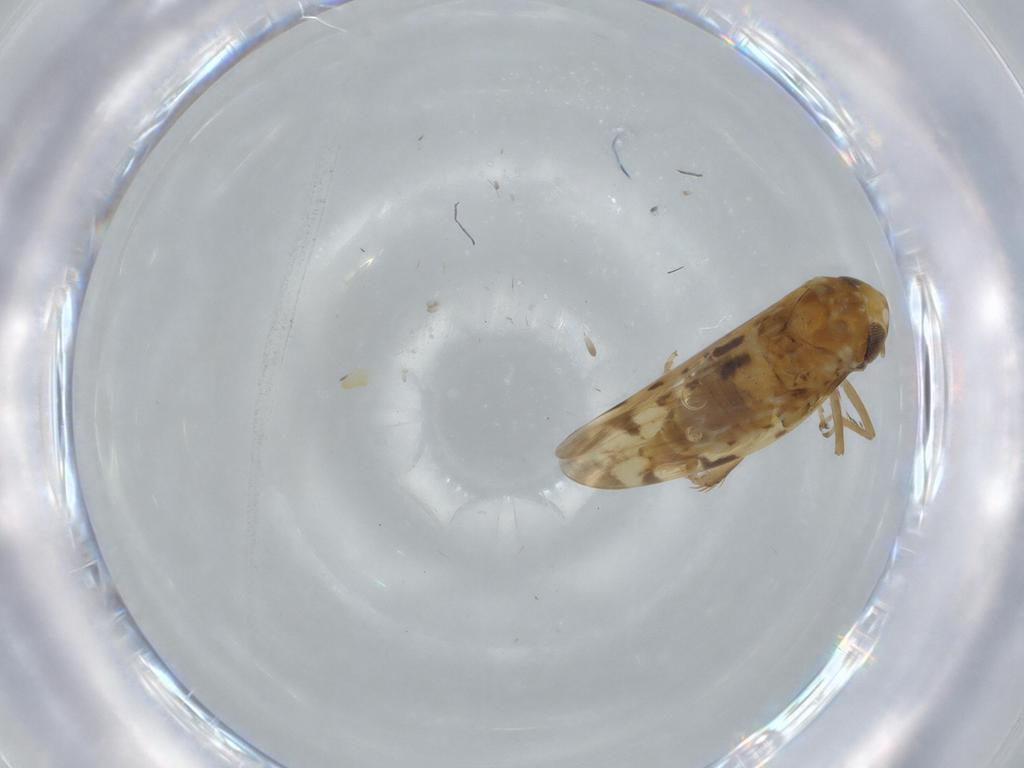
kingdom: Animalia
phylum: Arthropoda
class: Insecta
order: Hemiptera
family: Cicadellidae
